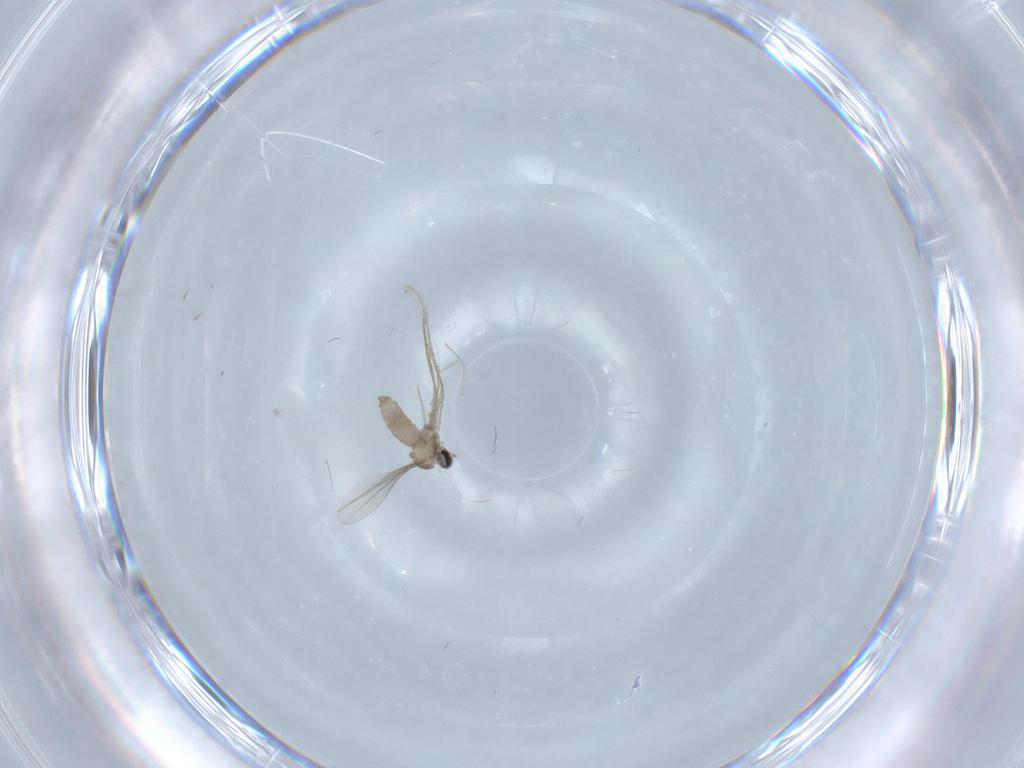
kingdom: Animalia
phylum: Arthropoda
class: Insecta
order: Diptera
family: Cecidomyiidae
